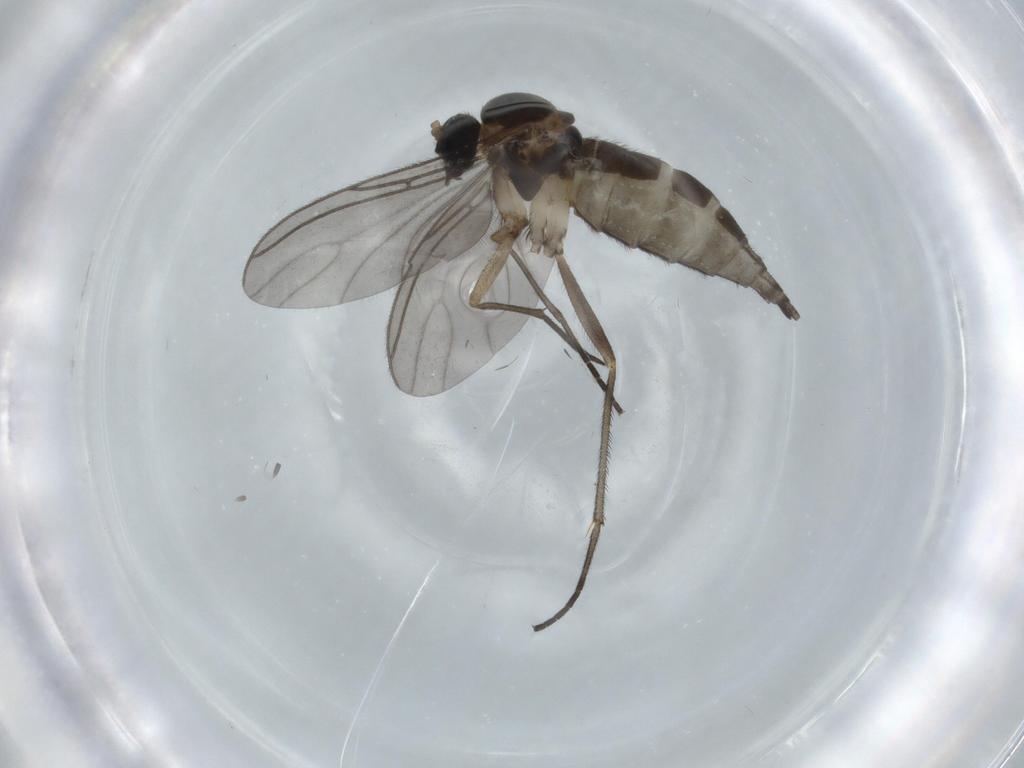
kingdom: Animalia
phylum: Arthropoda
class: Insecta
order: Diptera
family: Sciaridae
